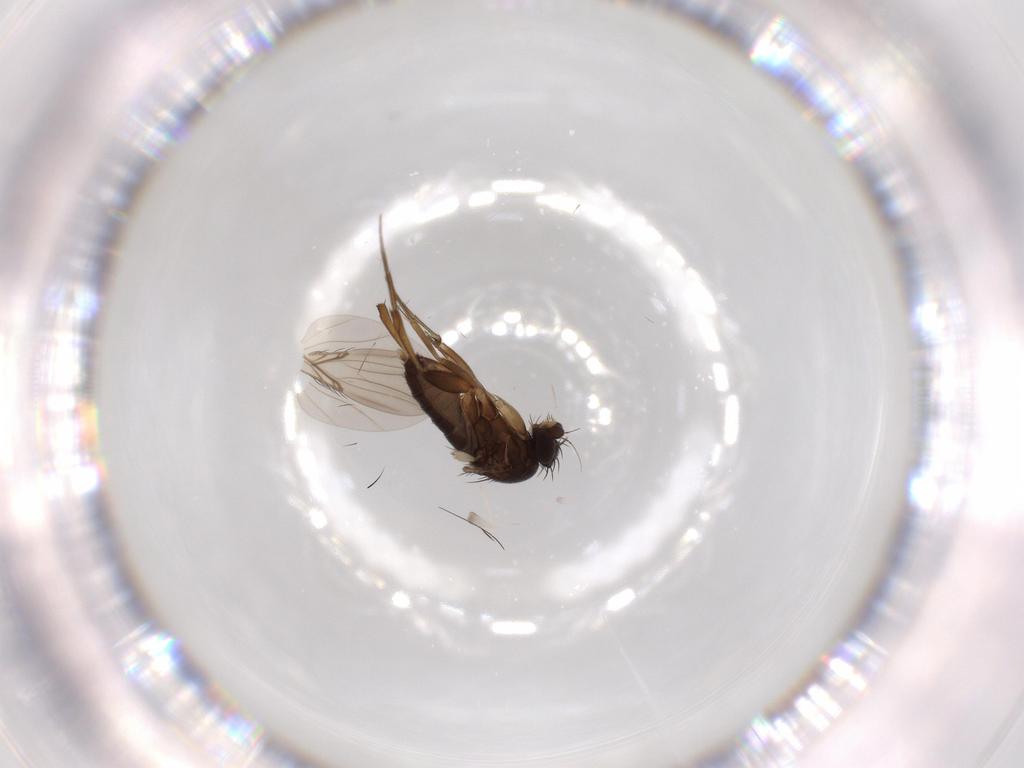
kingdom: Animalia
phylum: Arthropoda
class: Insecta
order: Diptera
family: Phoridae
